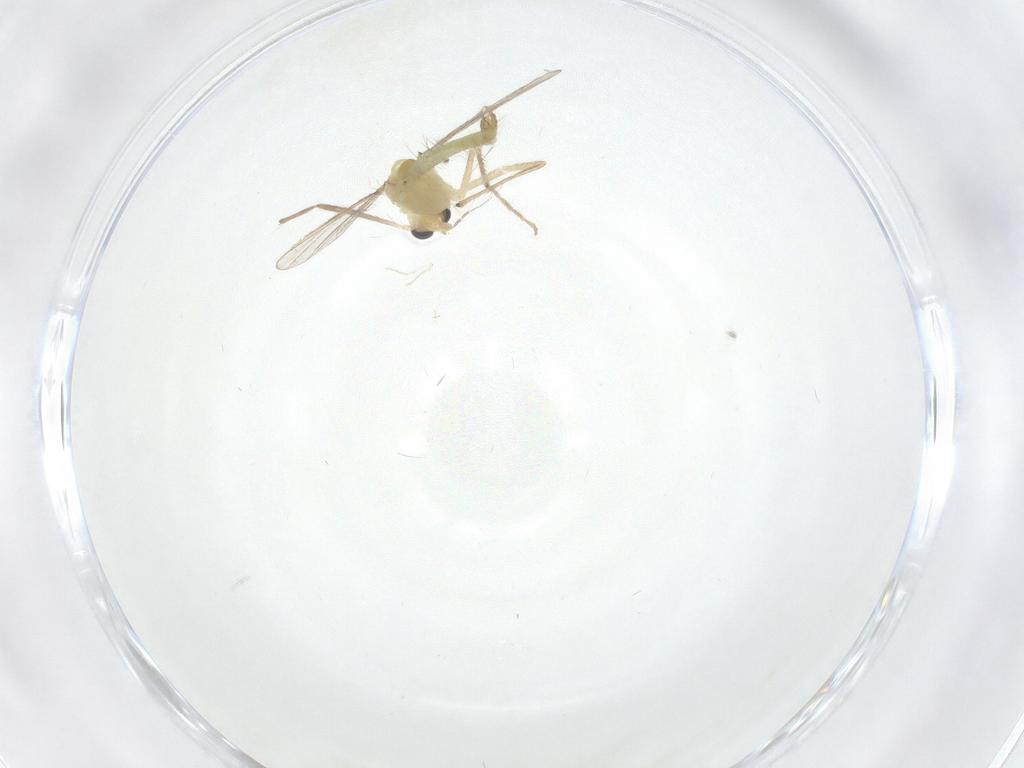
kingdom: Animalia
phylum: Arthropoda
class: Insecta
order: Diptera
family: Chironomidae
